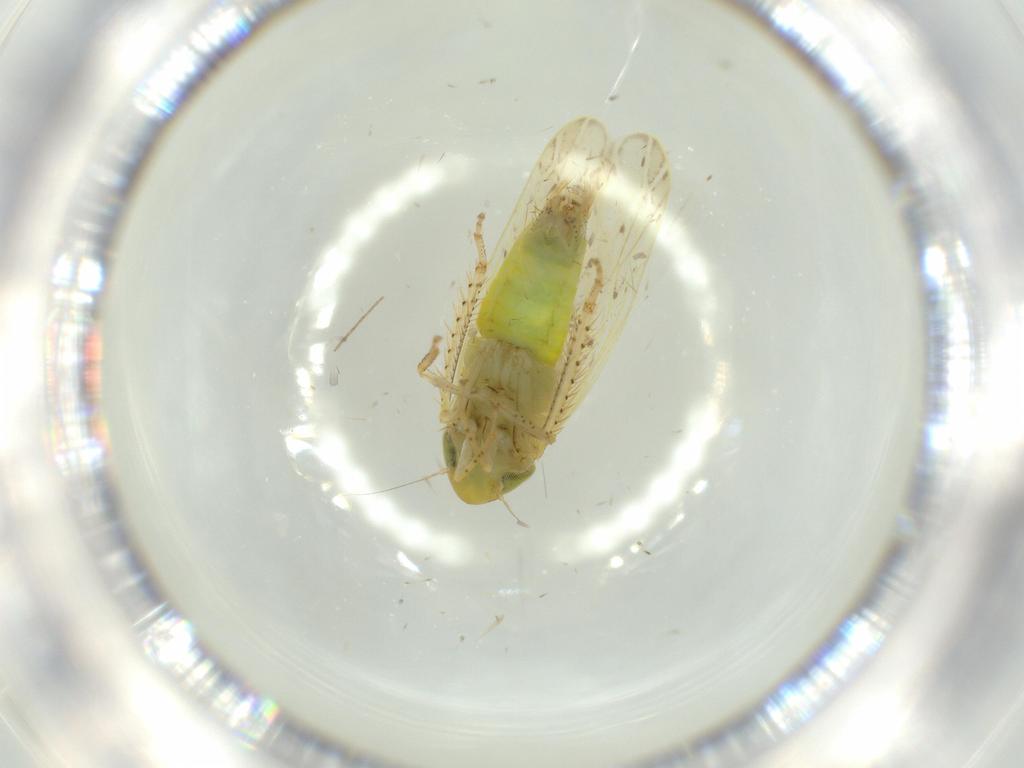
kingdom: Animalia
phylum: Arthropoda
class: Insecta
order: Hemiptera
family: Cicadellidae
